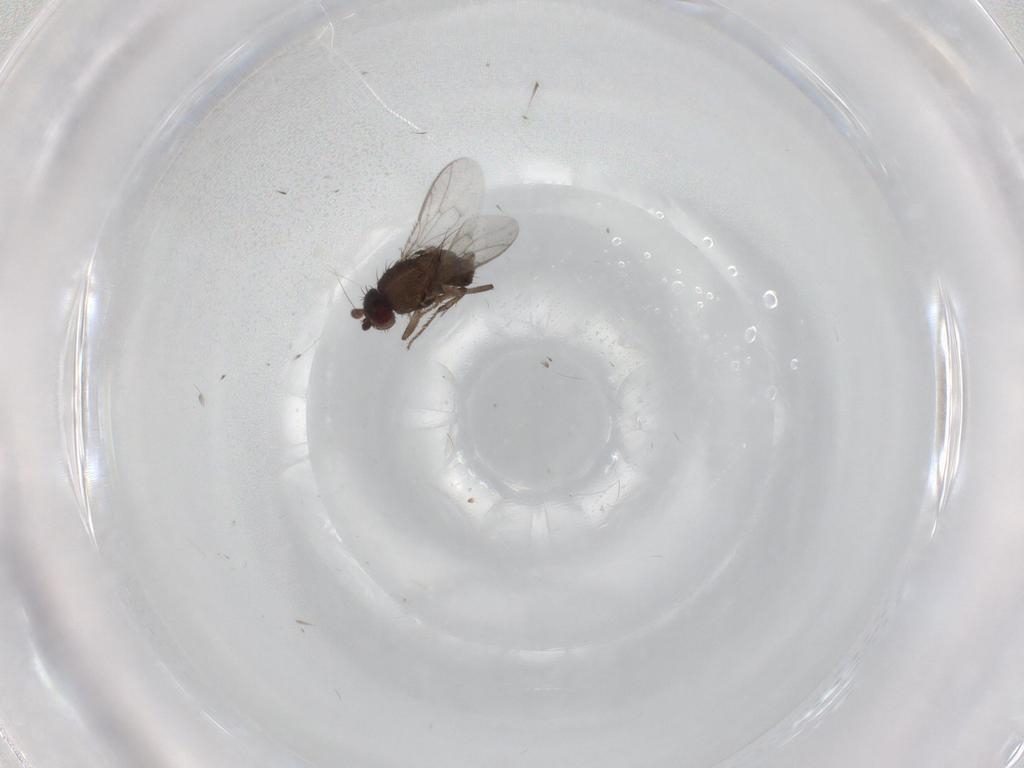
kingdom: Animalia
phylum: Arthropoda
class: Insecta
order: Diptera
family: Sphaeroceridae
